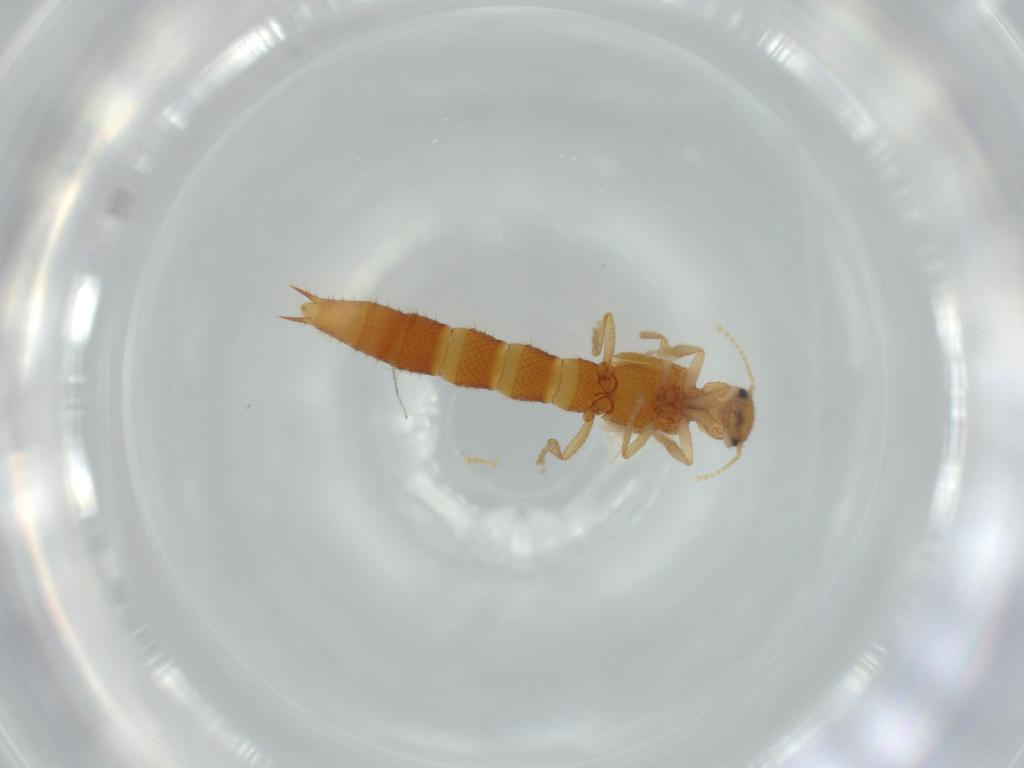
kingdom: Animalia
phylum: Arthropoda
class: Insecta
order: Coleoptera
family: Staphylinidae
